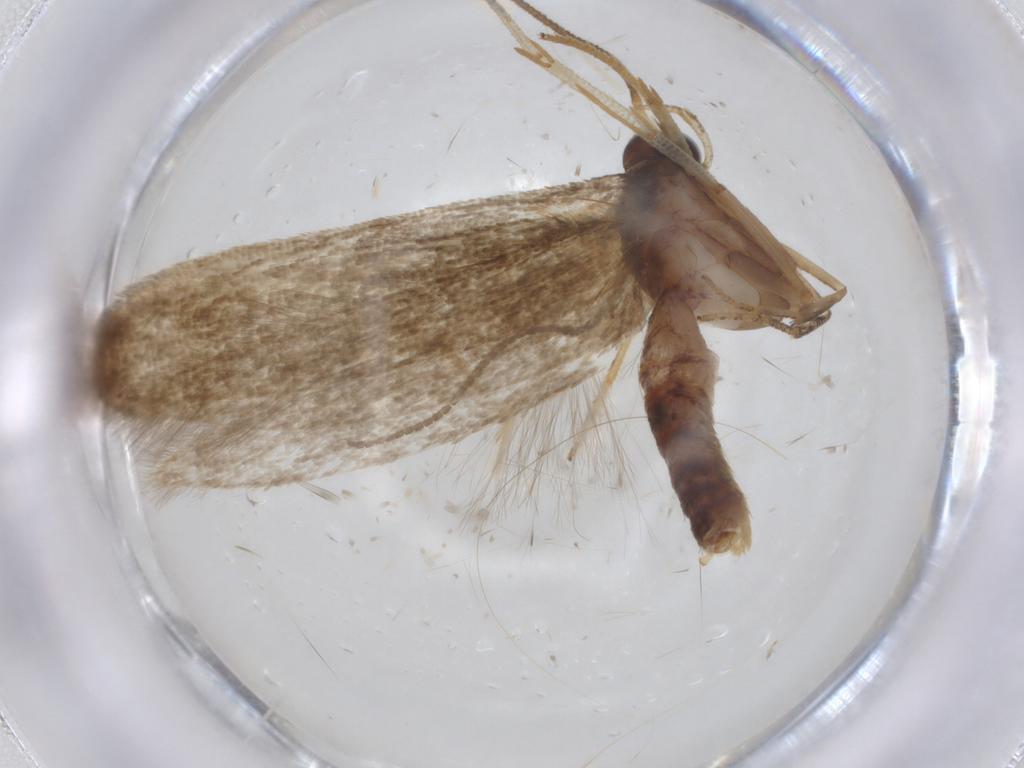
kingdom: Animalia
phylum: Arthropoda
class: Insecta
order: Lepidoptera
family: Blastobasidae
